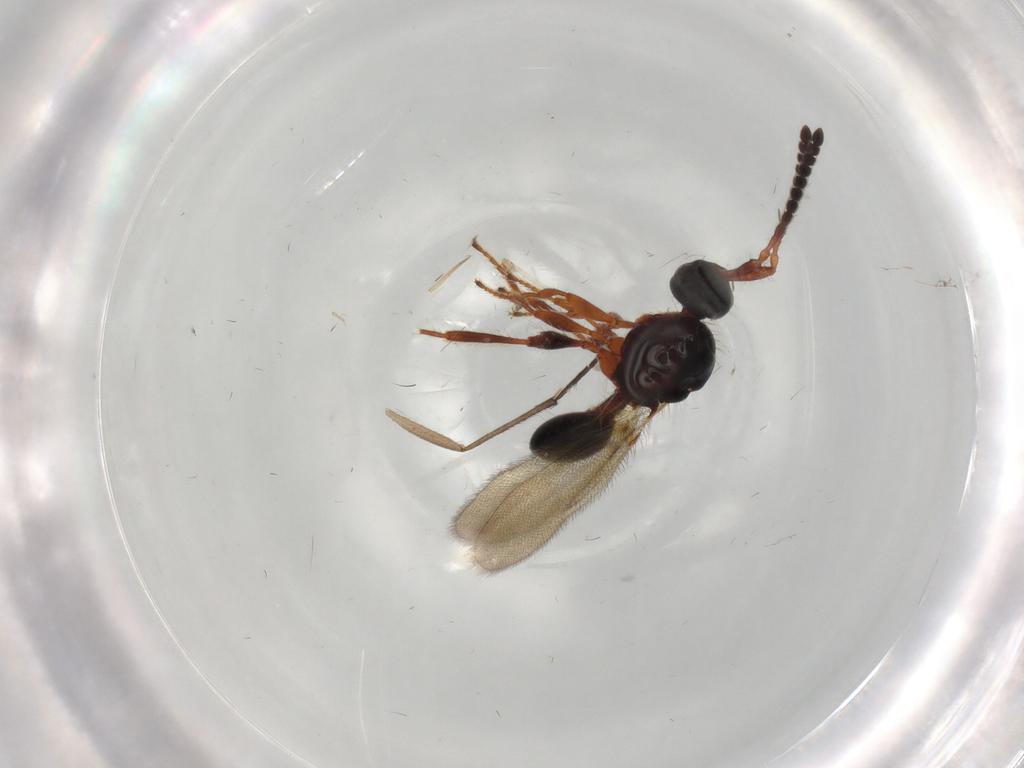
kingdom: Animalia
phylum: Arthropoda
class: Insecta
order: Hymenoptera
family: Diapriidae
